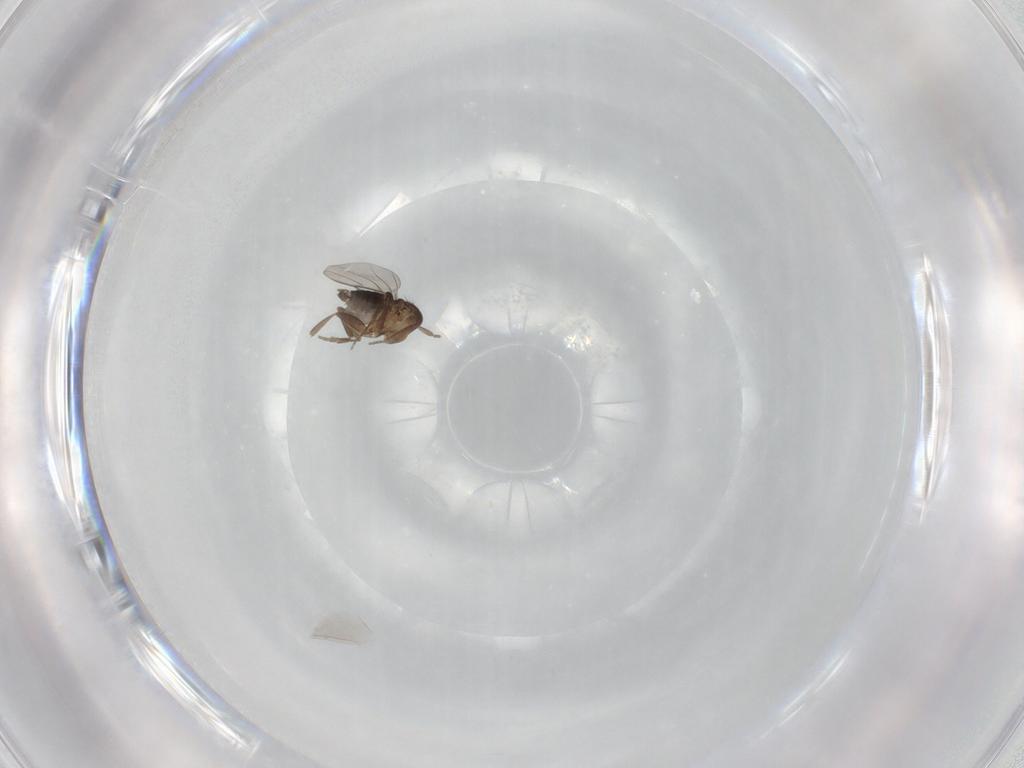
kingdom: Animalia
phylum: Arthropoda
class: Insecta
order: Diptera
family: Phoridae
